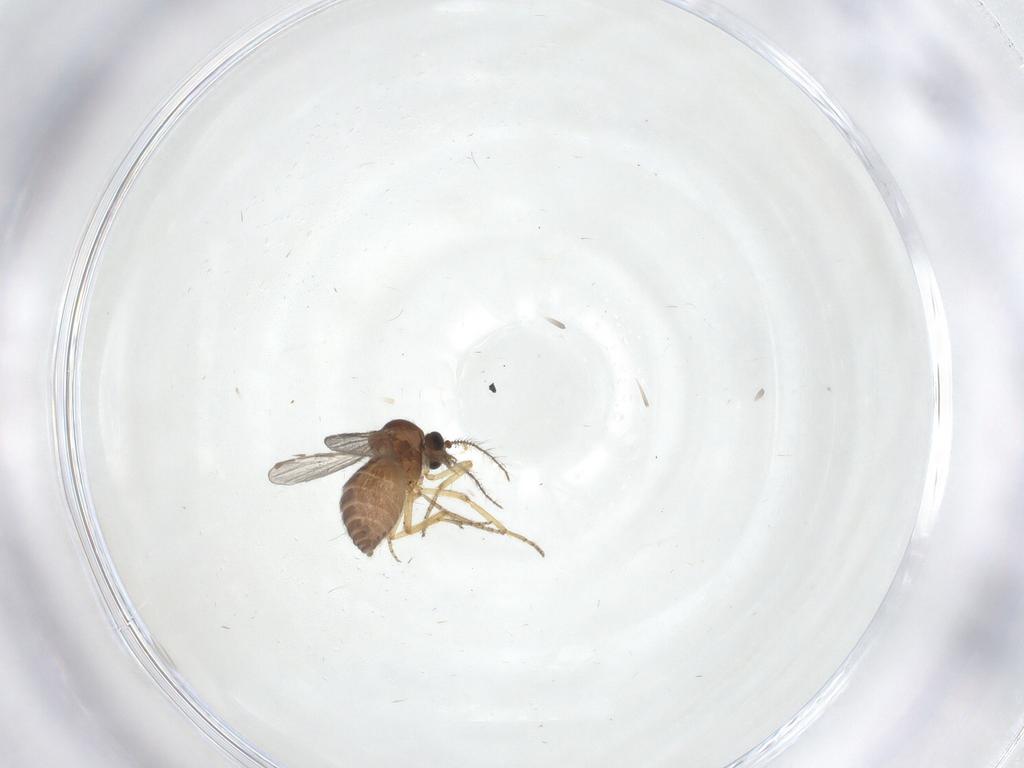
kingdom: Animalia
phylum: Arthropoda
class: Insecta
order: Diptera
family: Ceratopogonidae
